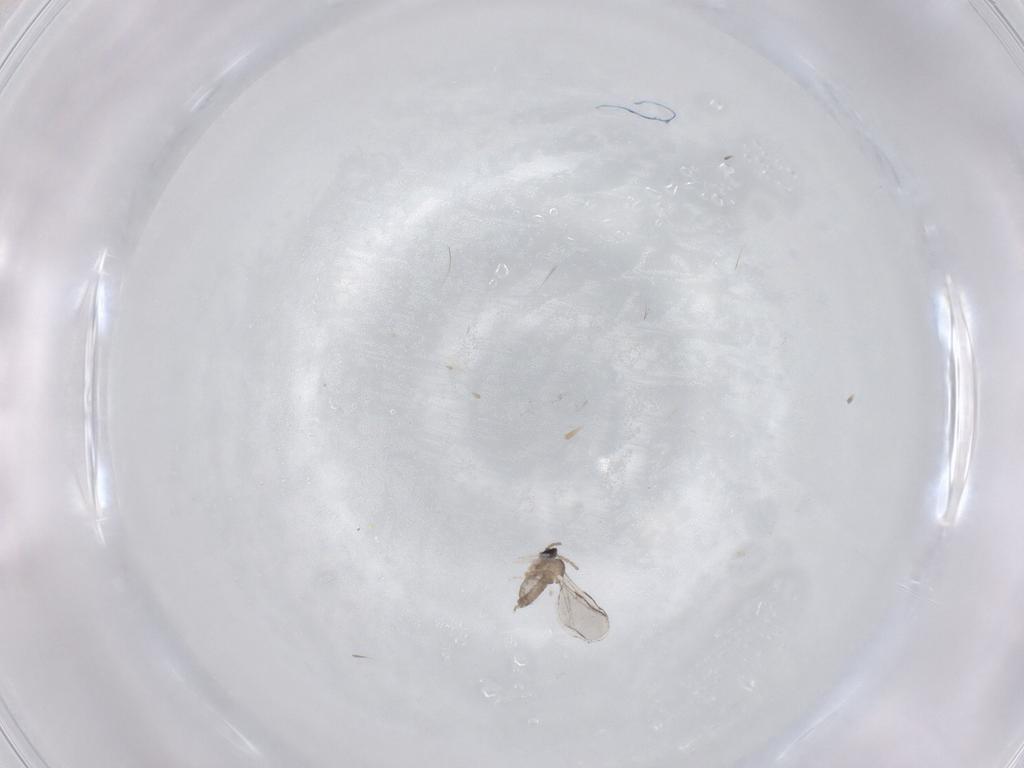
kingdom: Animalia
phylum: Arthropoda
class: Insecta
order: Diptera
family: Cecidomyiidae
